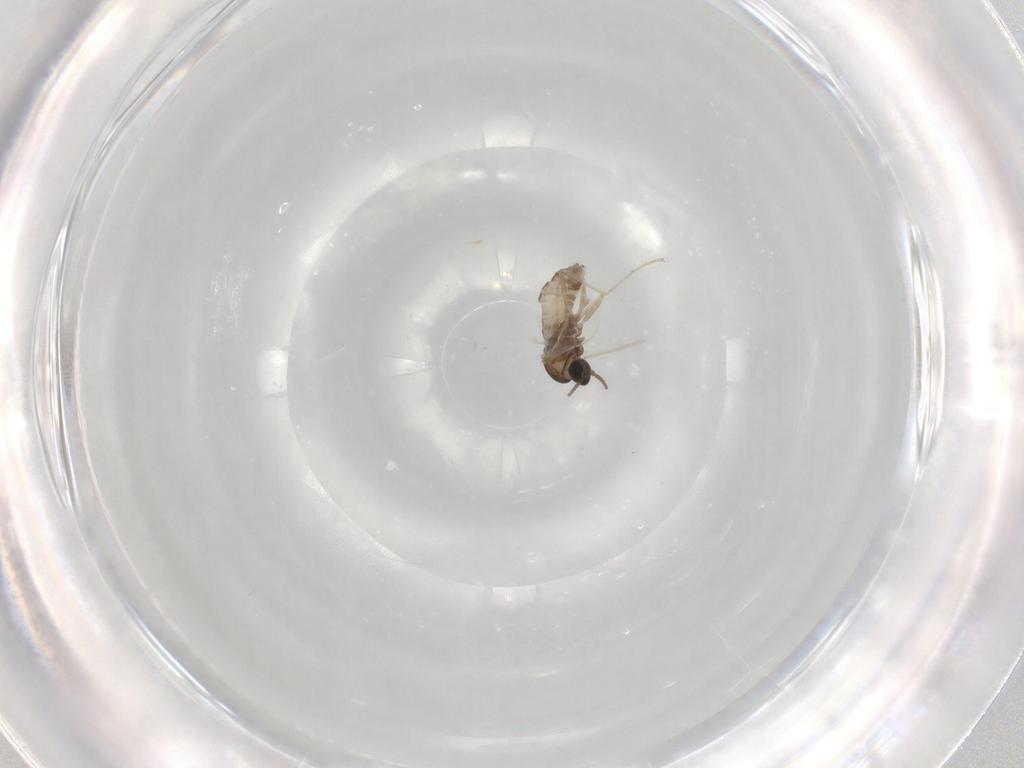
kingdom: Animalia
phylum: Arthropoda
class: Insecta
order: Diptera
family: Cecidomyiidae
